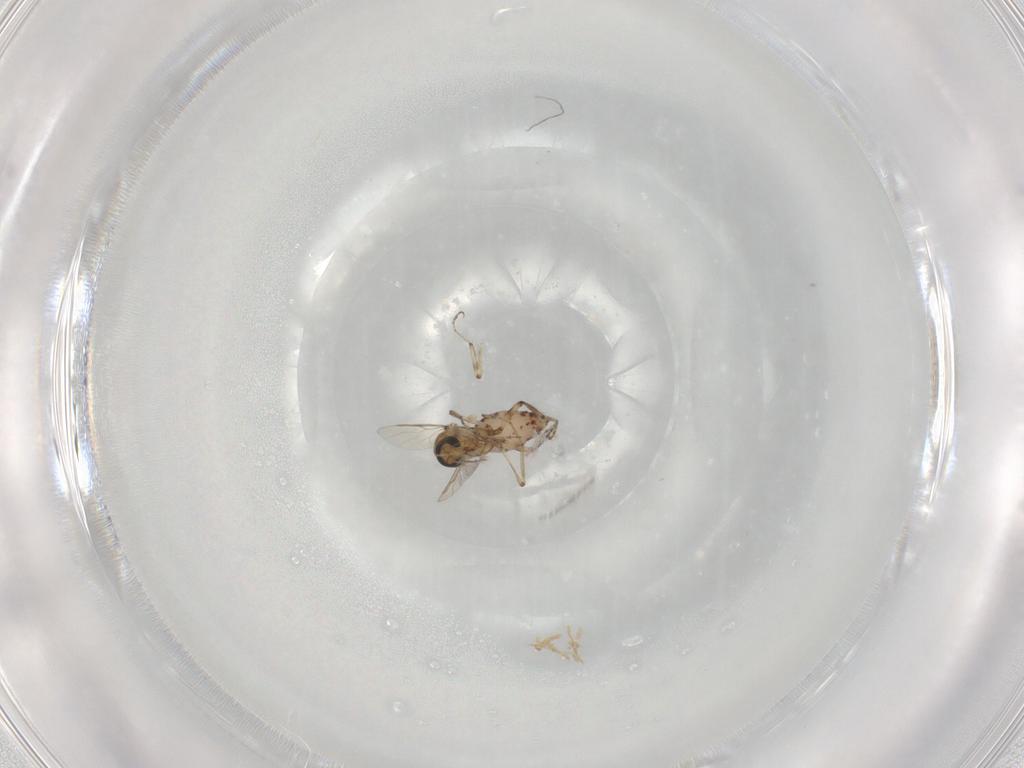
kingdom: Animalia
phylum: Arthropoda
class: Insecta
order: Diptera
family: Ceratopogonidae
